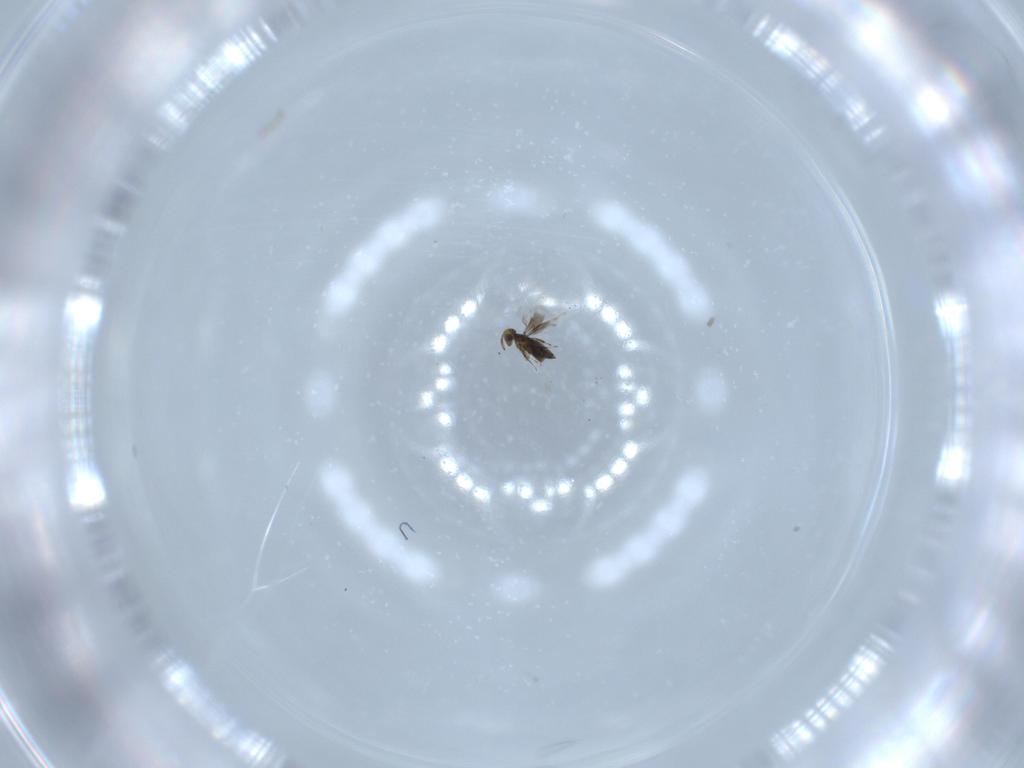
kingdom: Animalia
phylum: Arthropoda
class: Insecta
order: Hymenoptera
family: Signiphoridae
